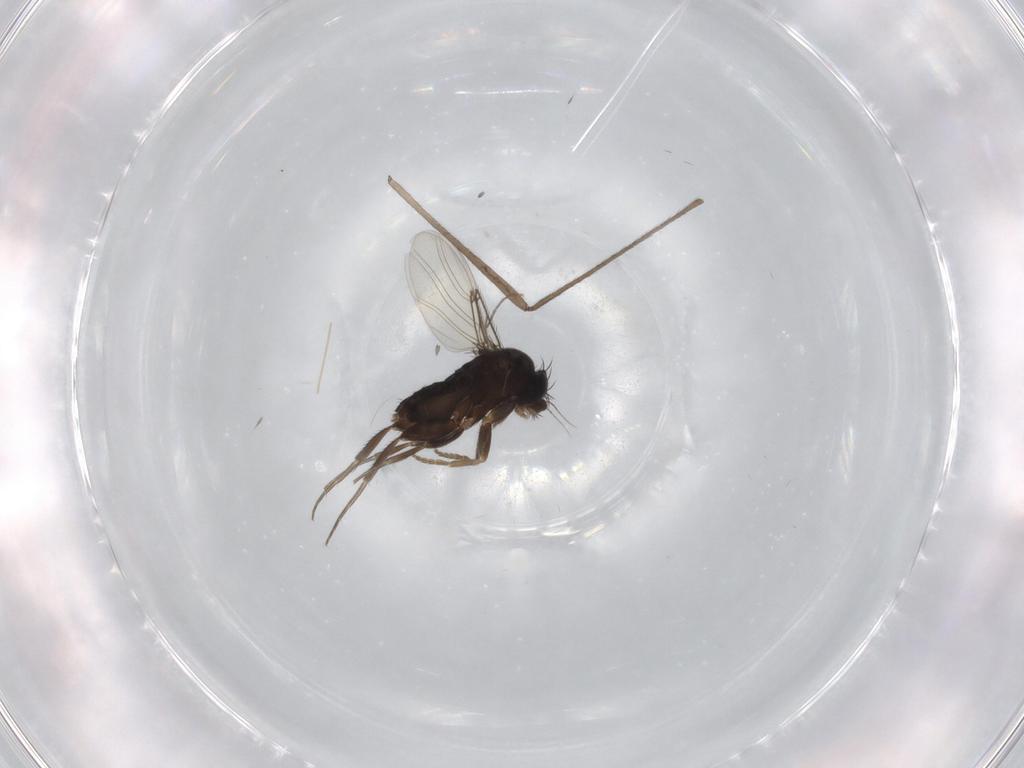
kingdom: Animalia
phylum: Arthropoda
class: Insecta
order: Diptera
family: Phoridae
